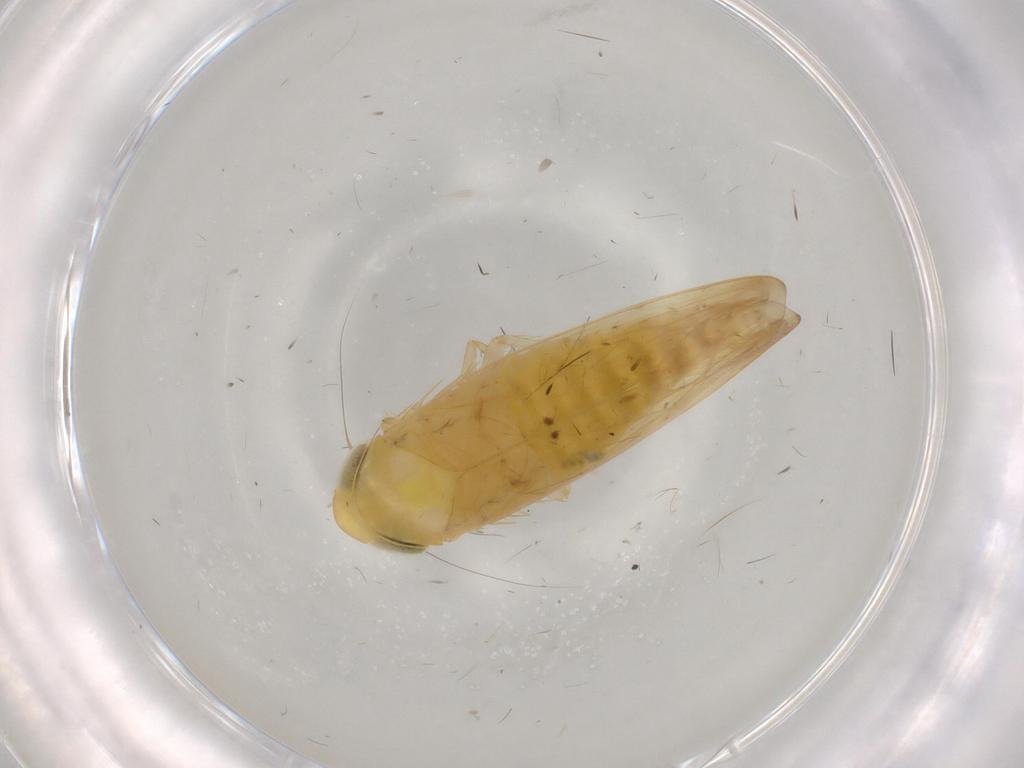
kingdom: Animalia
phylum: Arthropoda
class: Insecta
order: Hemiptera
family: Cicadellidae
